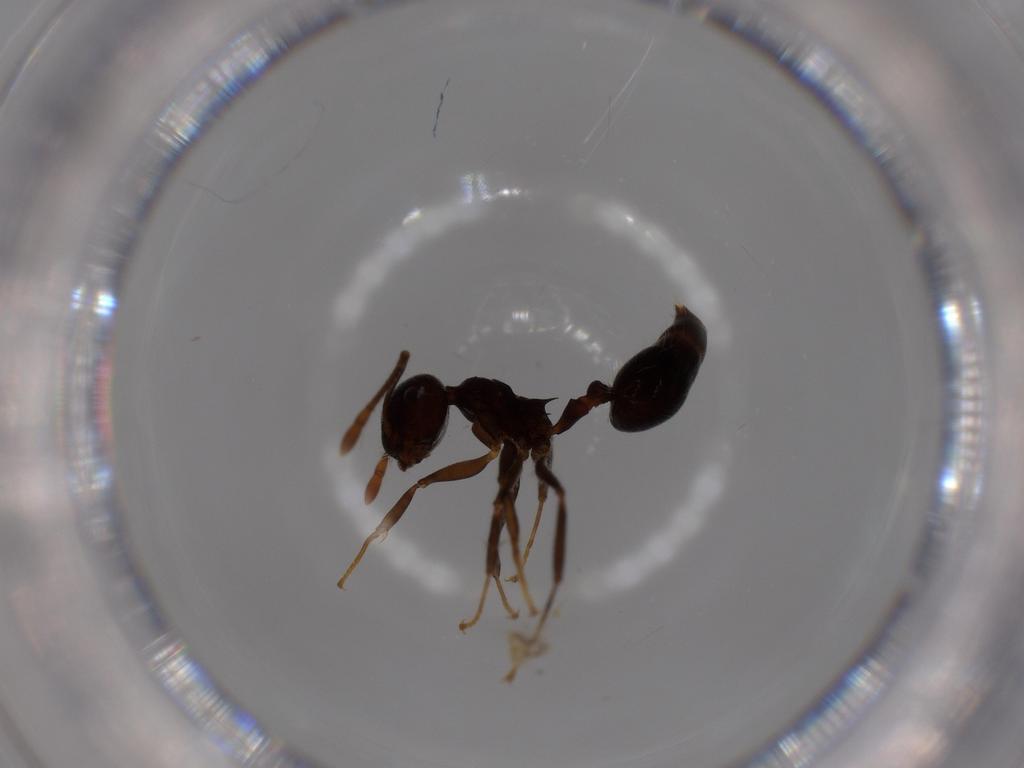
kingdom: Animalia
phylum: Arthropoda
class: Insecta
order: Hymenoptera
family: Formicidae
